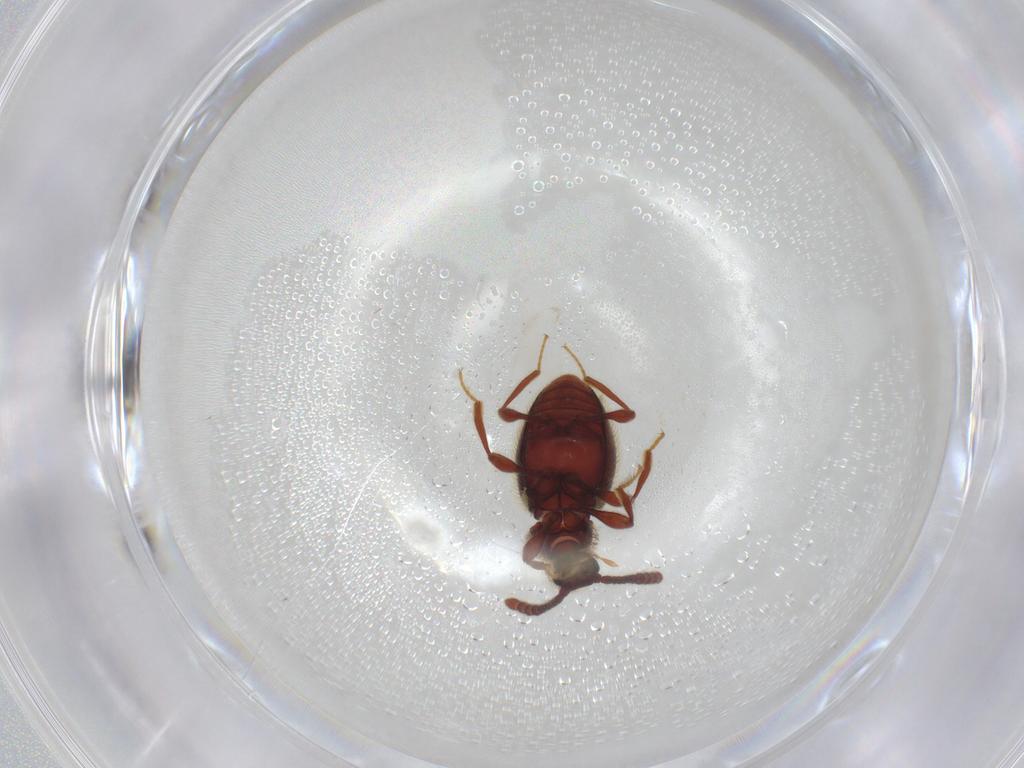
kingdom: Animalia
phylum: Arthropoda
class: Insecta
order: Coleoptera
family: Staphylinidae
